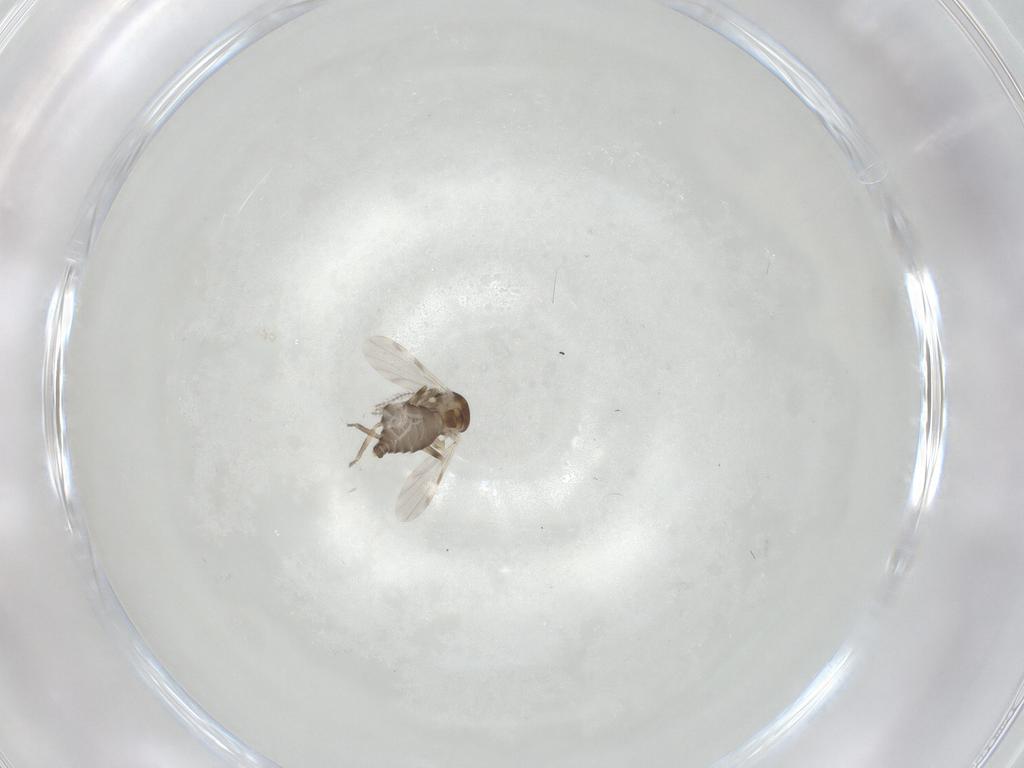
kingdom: Animalia
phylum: Arthropoda
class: Insecta
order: Diptera
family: Ceratopogonidae
